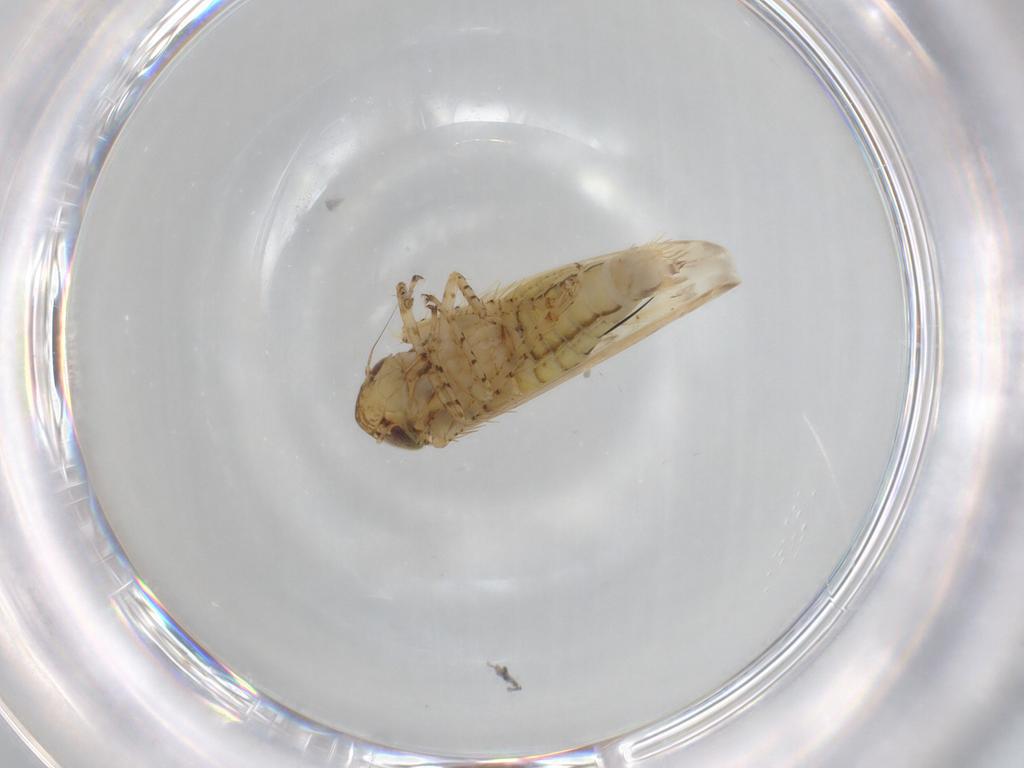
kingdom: Animalia
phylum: Arthropoda
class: Insecta
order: Hemiptera
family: Cicadellidae
